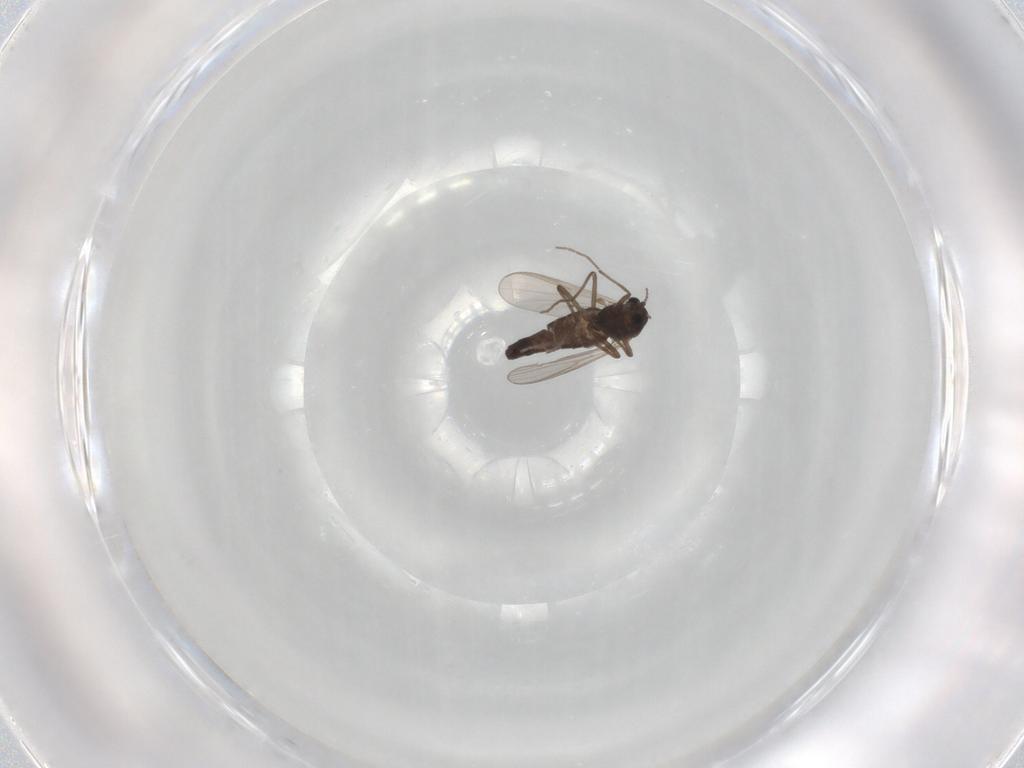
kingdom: Animalia
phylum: Arthropoda
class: Insecta
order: Diptera
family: Chironomidae
